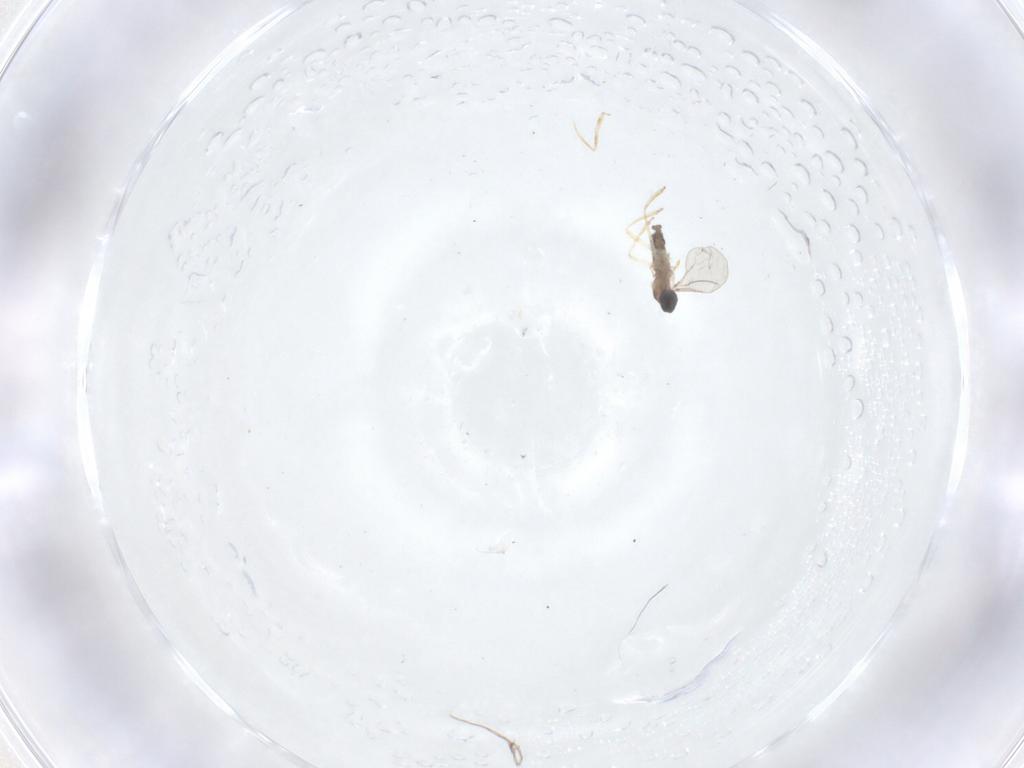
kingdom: Animalia
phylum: Arthropoda
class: Insecta
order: Diptera
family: Cecidomyiidae
